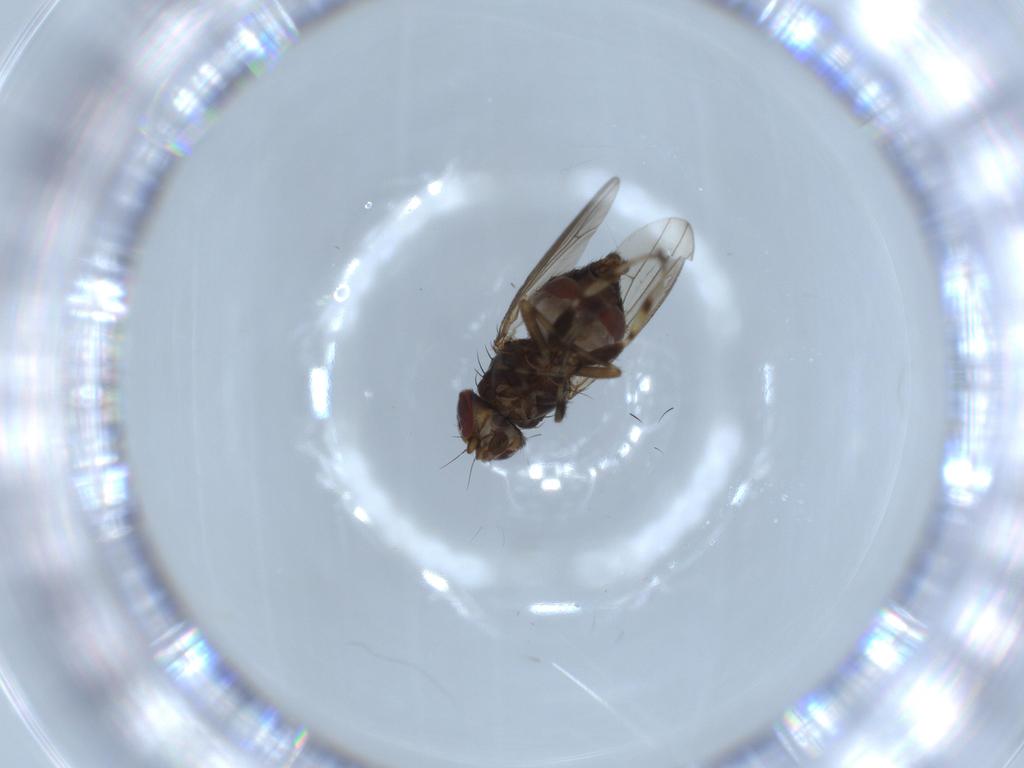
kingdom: Animalia
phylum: Arthropoda
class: Insecta
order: Diptera
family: Heleomyzidae
